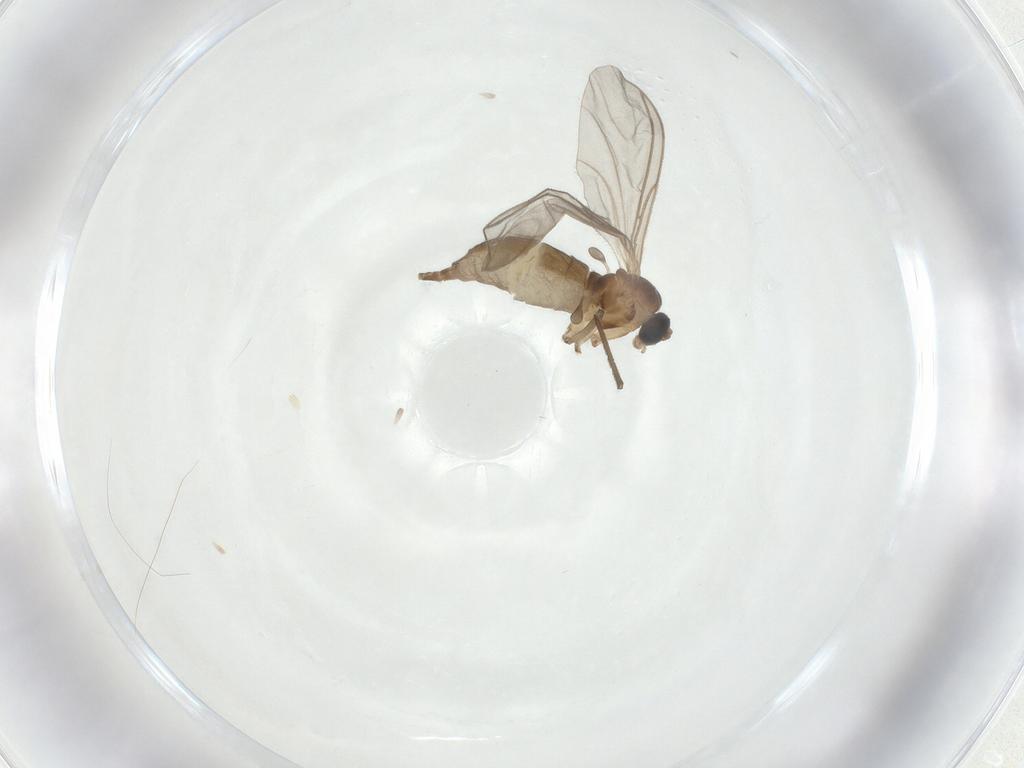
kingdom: Animalia
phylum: Arthropoda
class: Insecta
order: Diptera
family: Sciaridae
